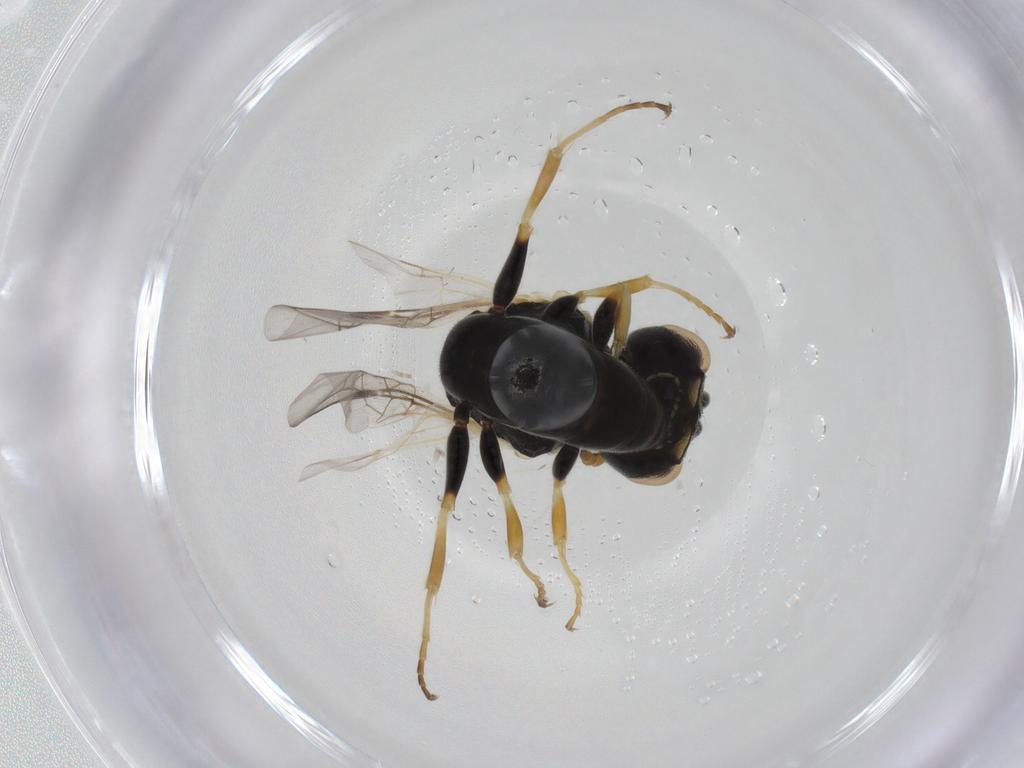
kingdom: Animalia
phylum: Arthropoda
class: Insecta
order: Hymenoptera
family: Pemphredonidae
